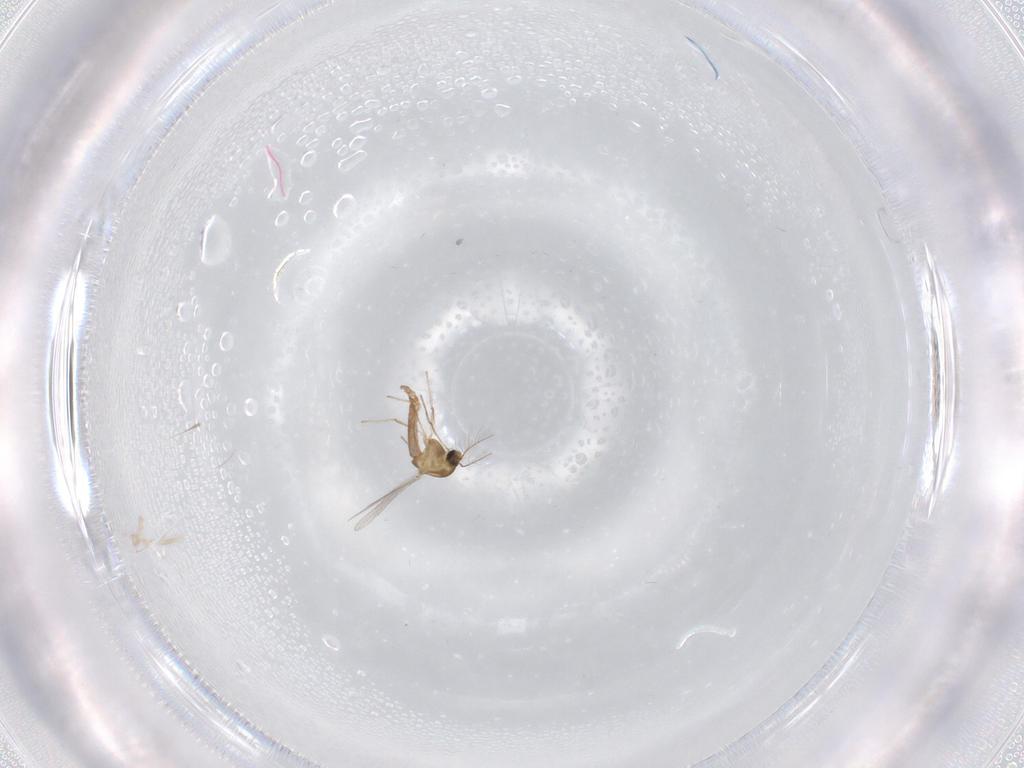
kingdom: Animalia
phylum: Arthropoda
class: Insecta
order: Diptera
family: Chironomidae
